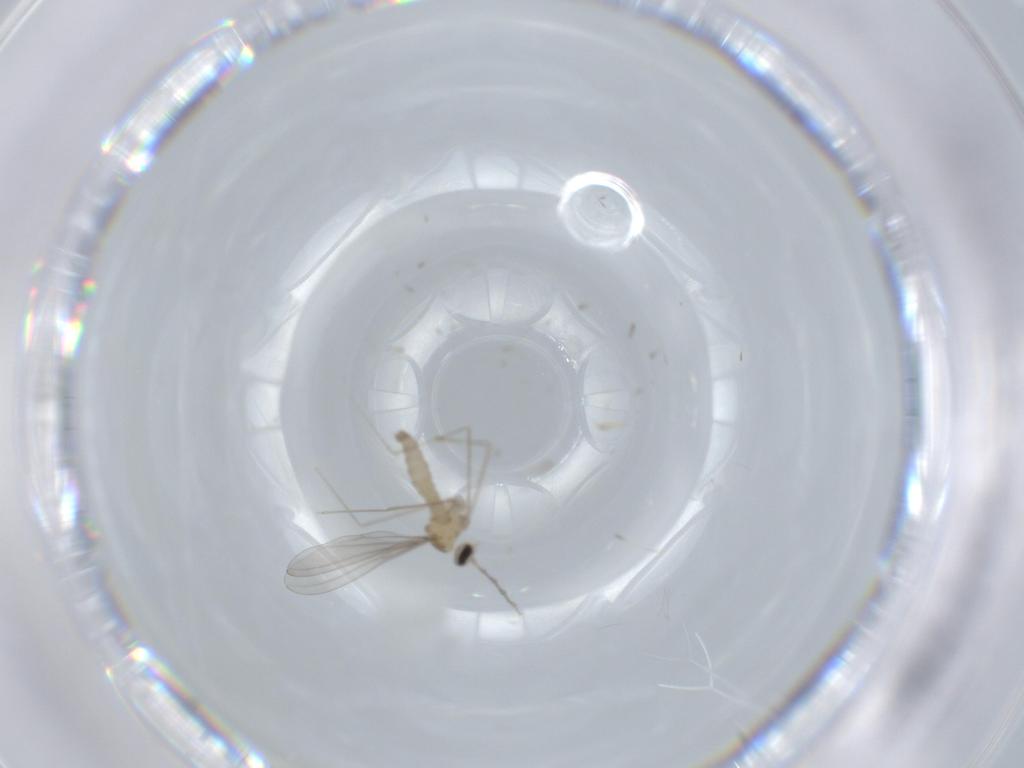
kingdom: Animalia
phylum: Arthropoda
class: Insecta
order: Diptera
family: Cecidomyiidae
